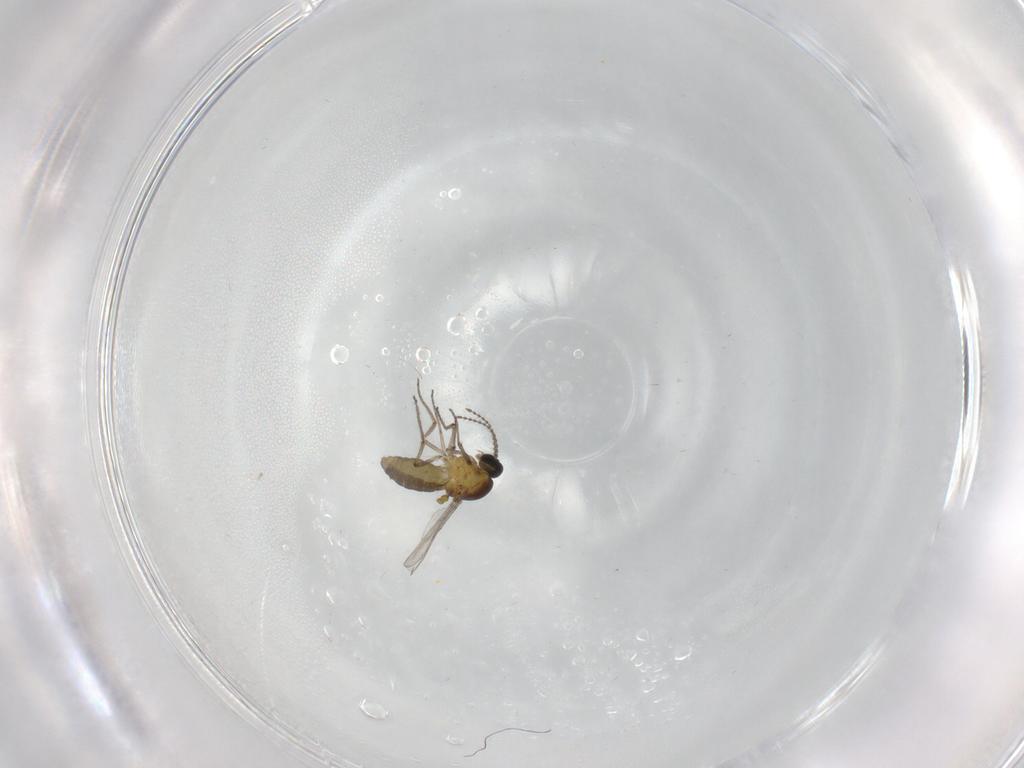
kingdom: Animalia
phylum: Arthropoda
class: Insecta
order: Diptera
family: Ceratopogonidae
